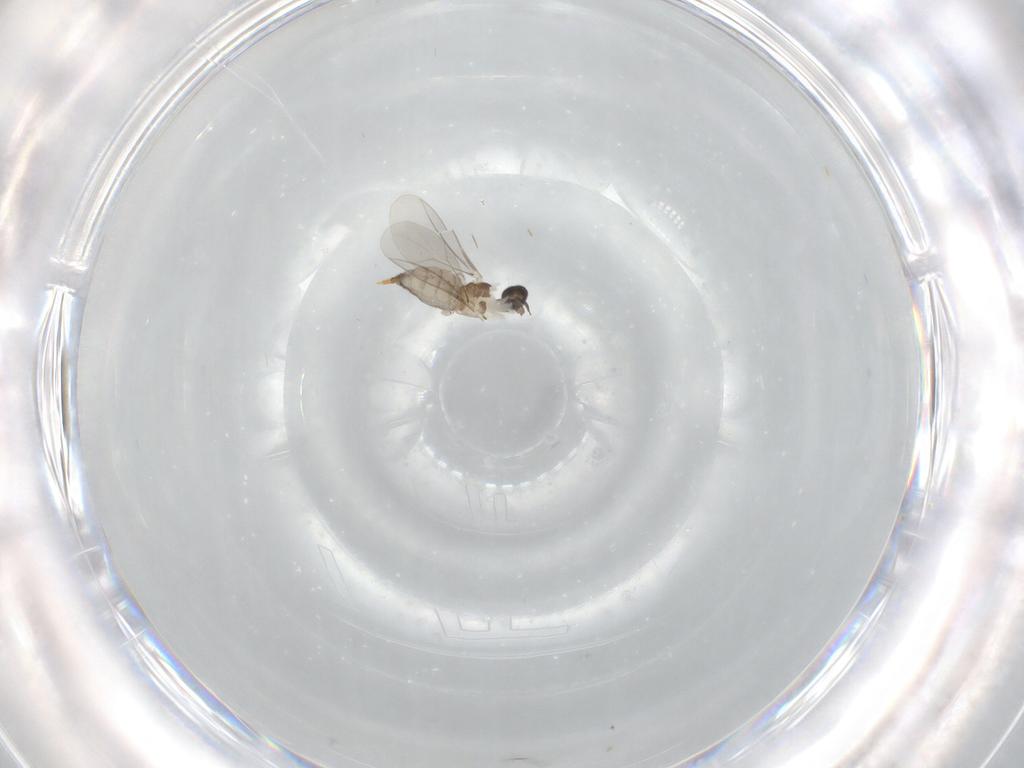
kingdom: Animalia
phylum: Arthropoda
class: Insecta
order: Diptera
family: Cecidomyiidae
